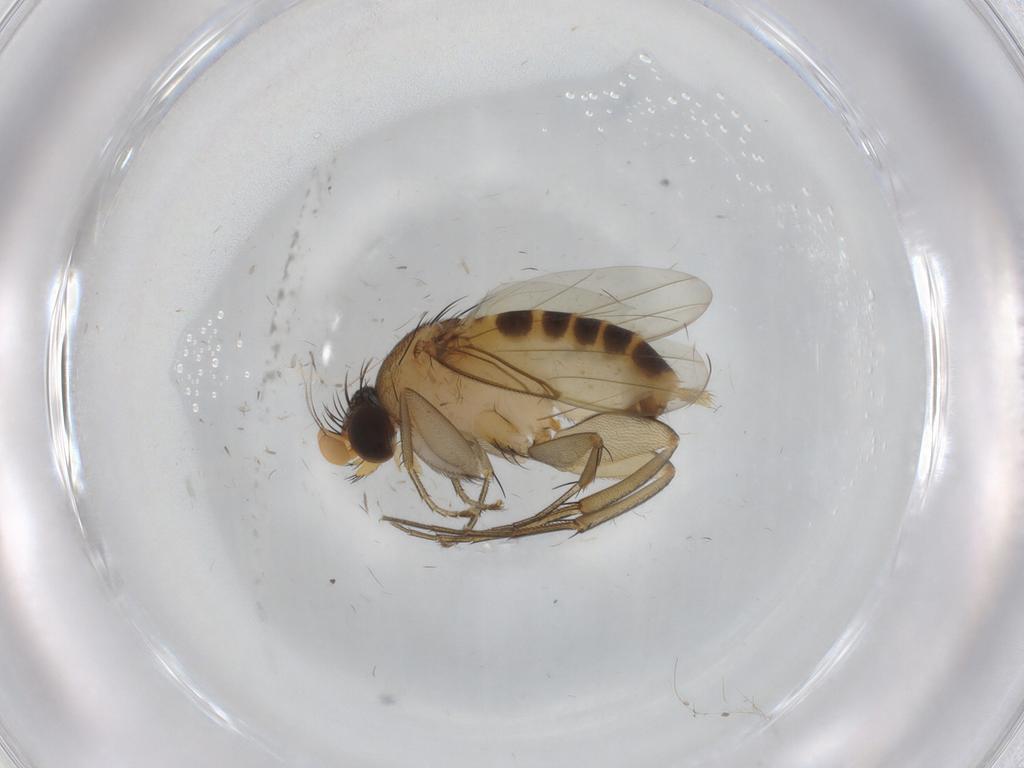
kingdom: Animalia
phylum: Arthropoda
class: Insecta
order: Diptera
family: Phoridae
